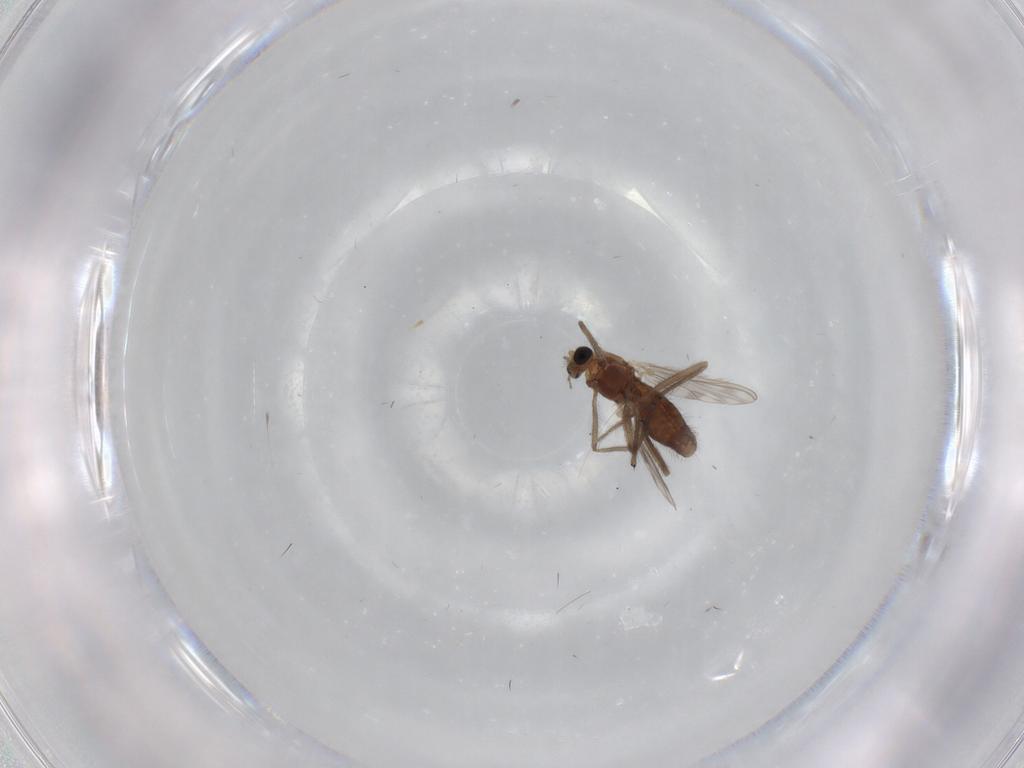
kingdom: Animalia
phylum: Arthropoda
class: Insecta
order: Diptera
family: Chironomidae
